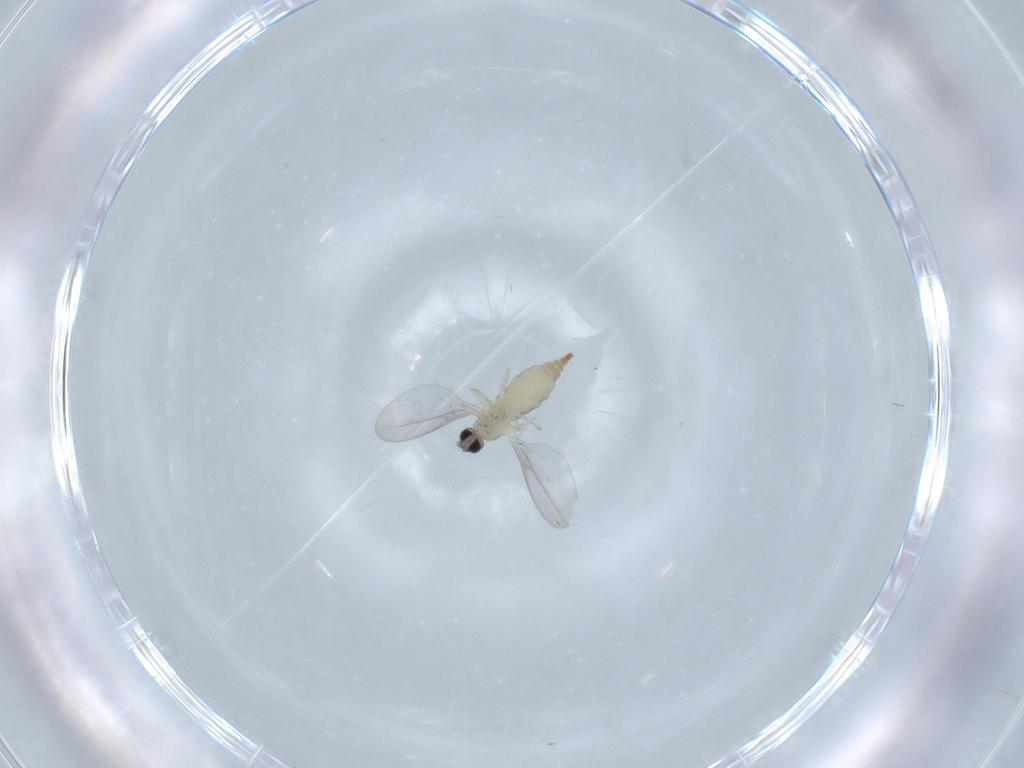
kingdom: Animalia
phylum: Arthropoda
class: Insecta
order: Diptera
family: Cecidomyiidae
